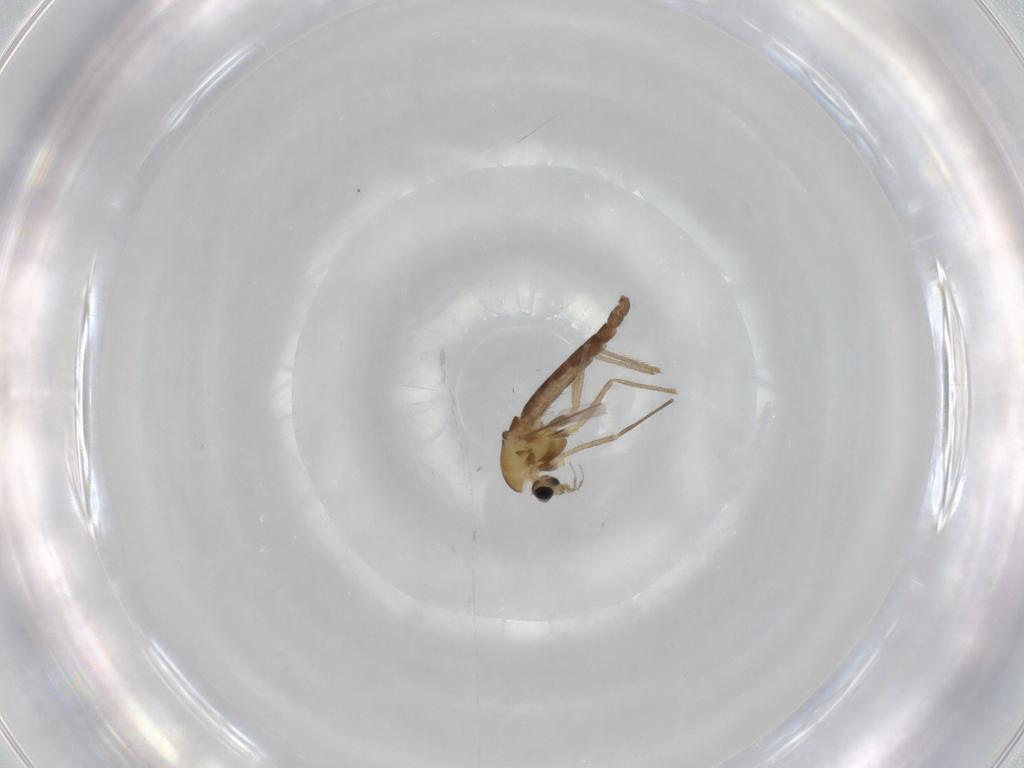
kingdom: Animalia
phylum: Arthropoda
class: Insecta
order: Diptera
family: Chironomidae
